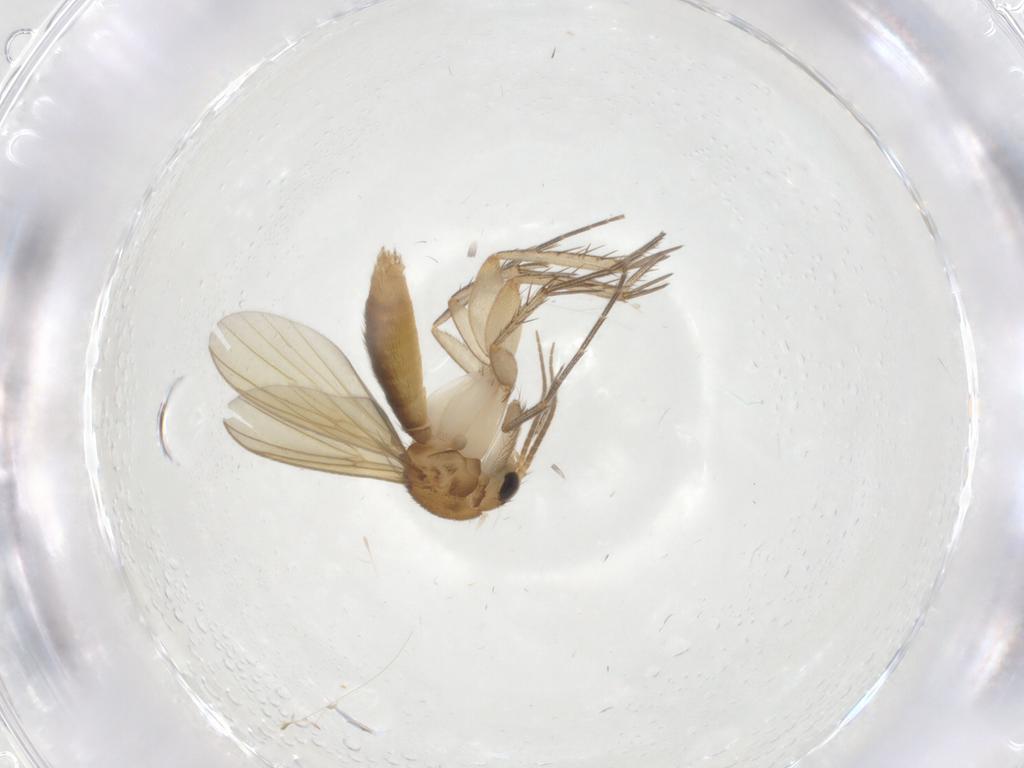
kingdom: Animalia
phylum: Arthropoda
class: Insecta
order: Diptera
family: Mycetophilidae
